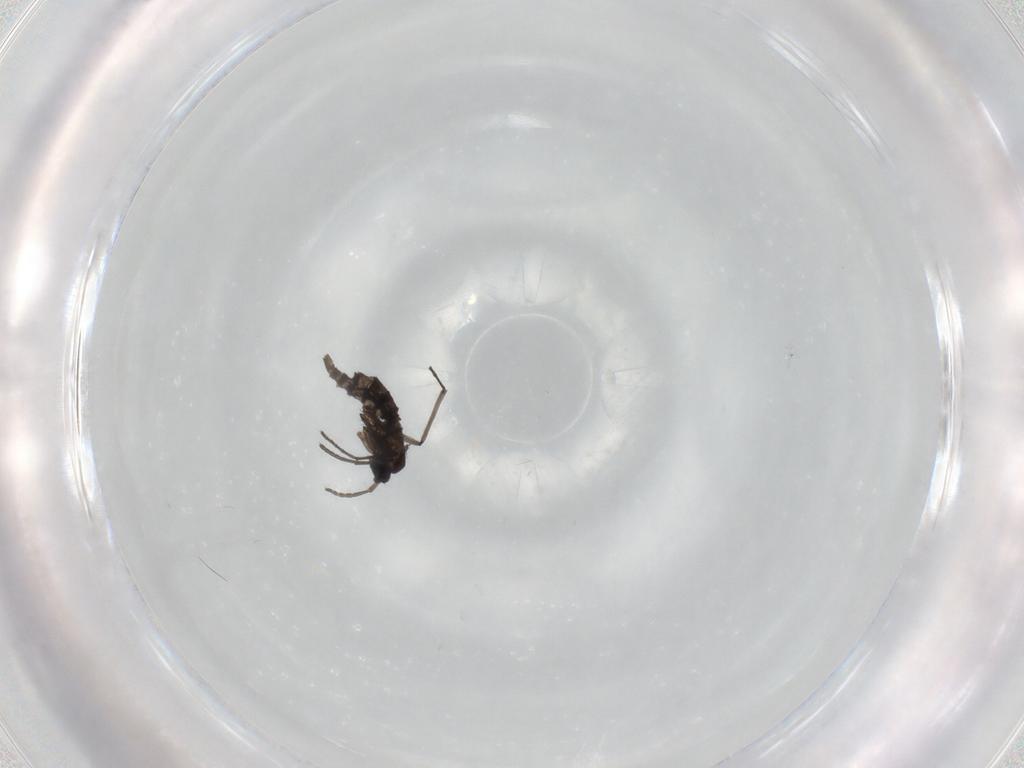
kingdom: Animalia
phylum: Arthropoda
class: Insecta
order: Diptera
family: Sciaridae
